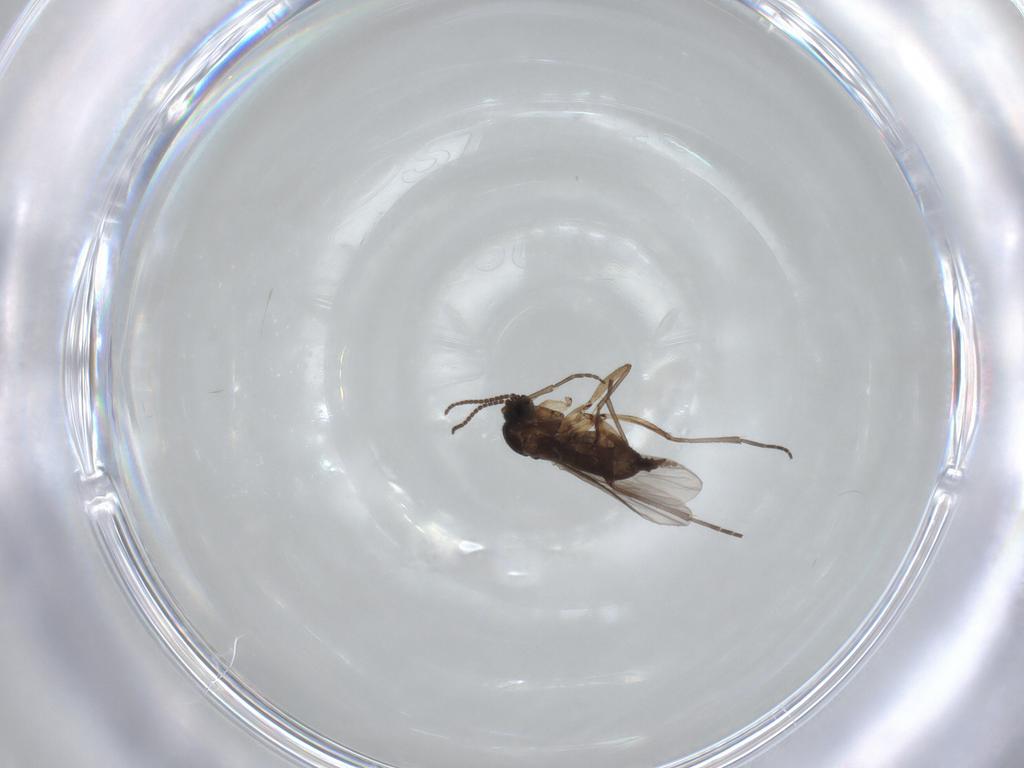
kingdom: Animalia
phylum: Arthropoda
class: Insecta
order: Diptera
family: Sciaridae
